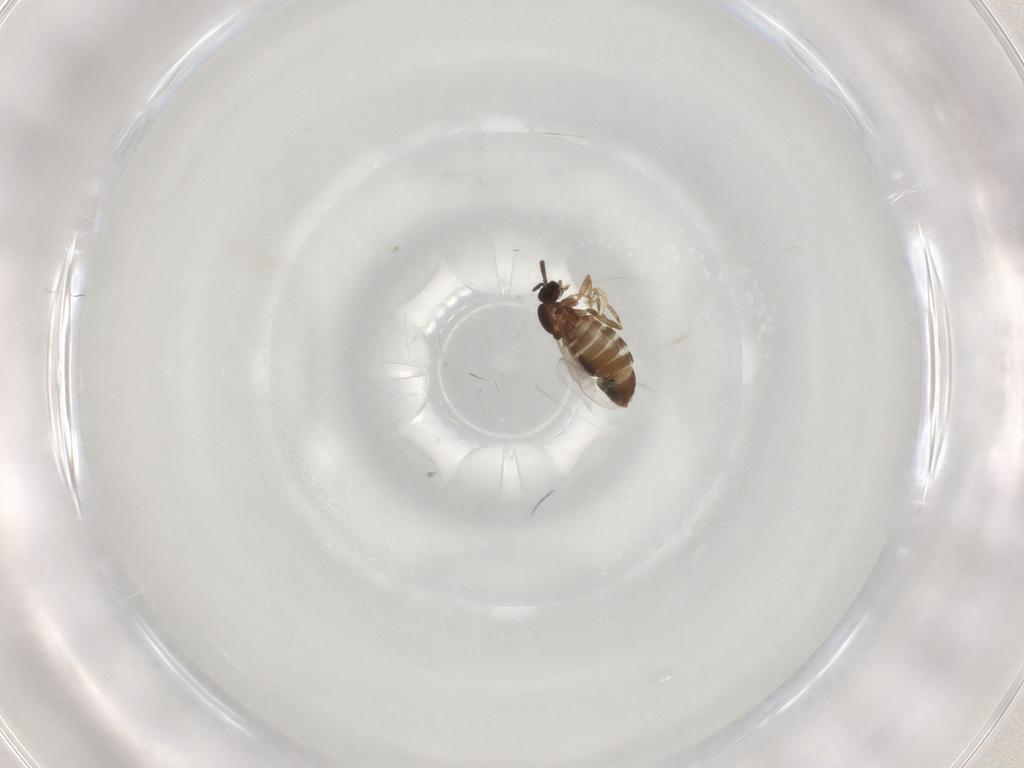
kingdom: Animalia
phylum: Arthropoda
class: Insecta
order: Diptera
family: Scatopsidae
